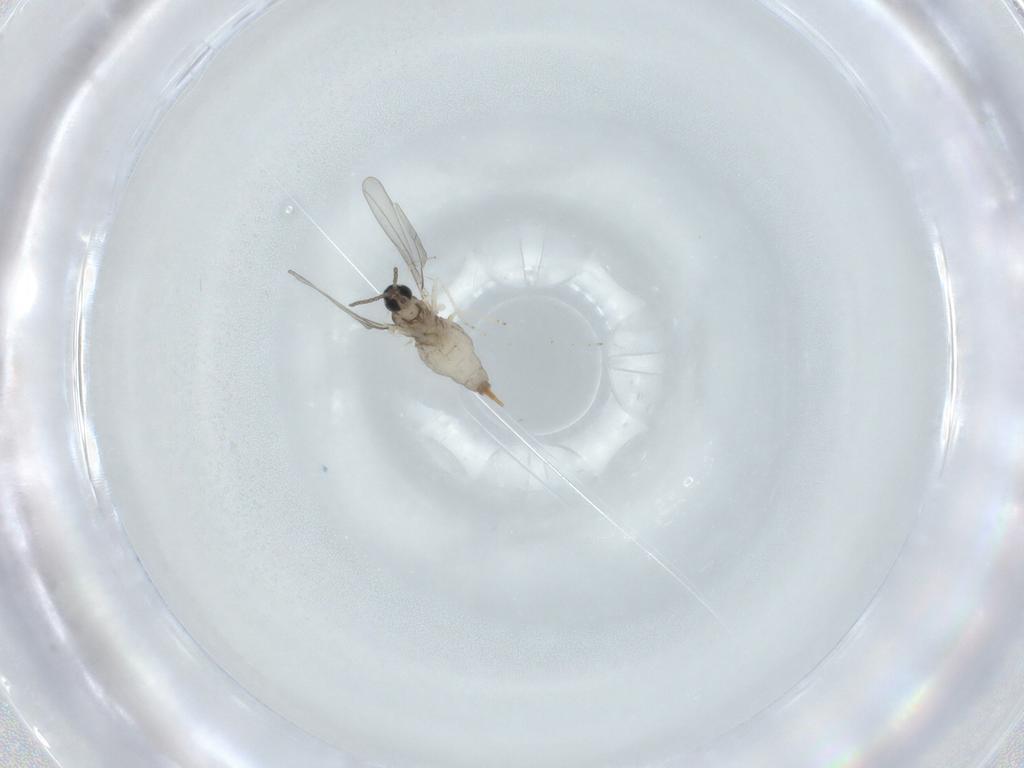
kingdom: Animalia
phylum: Arthropoda
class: Insecta
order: Diptera
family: Cecidomyiidae
